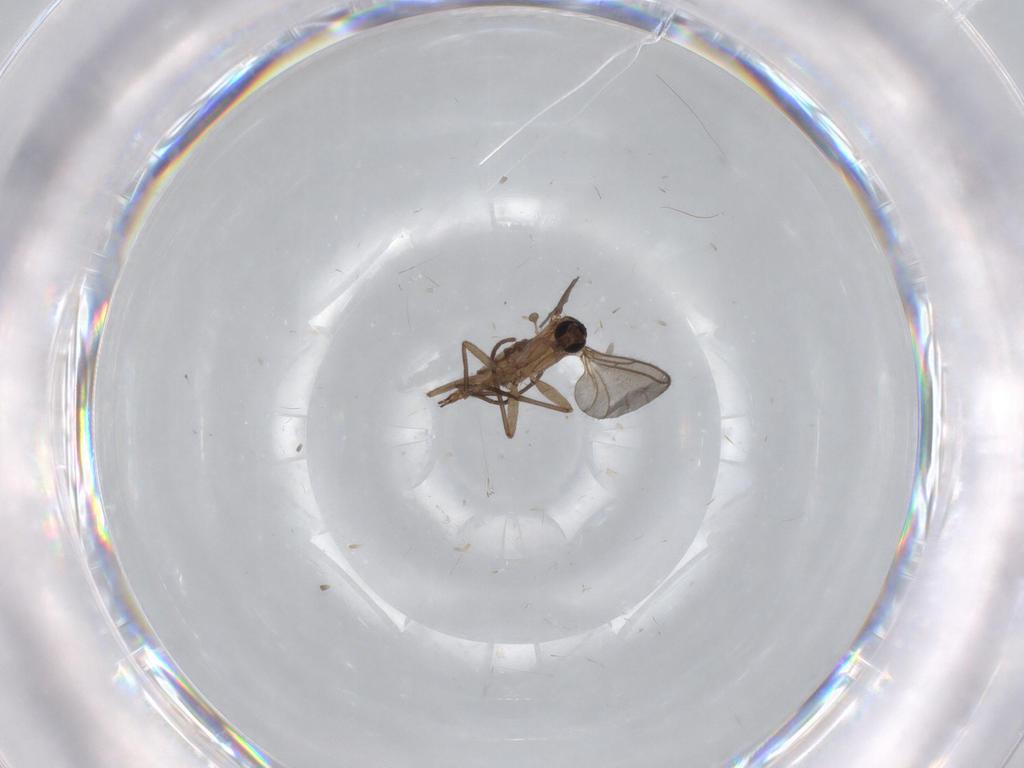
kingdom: Animalia
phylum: Arthropoda
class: Insecta
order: Diptera
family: Sciaridae
